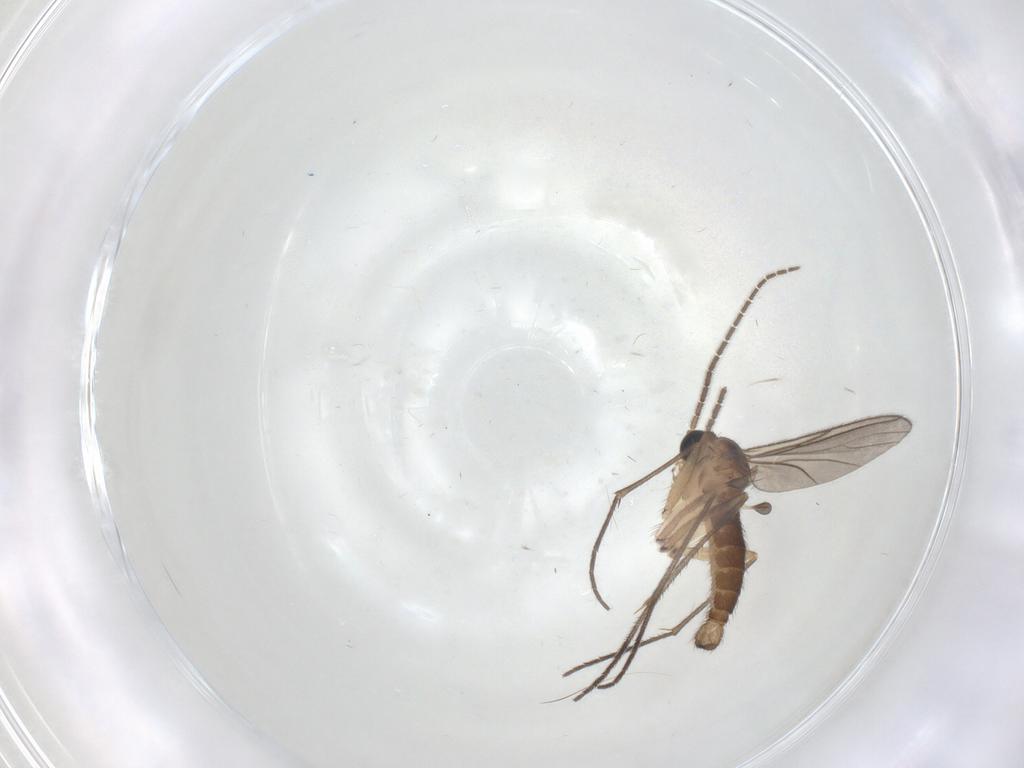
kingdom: Animalia
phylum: Arthropoda
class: Insecta
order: Diptera
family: Sciaridae
